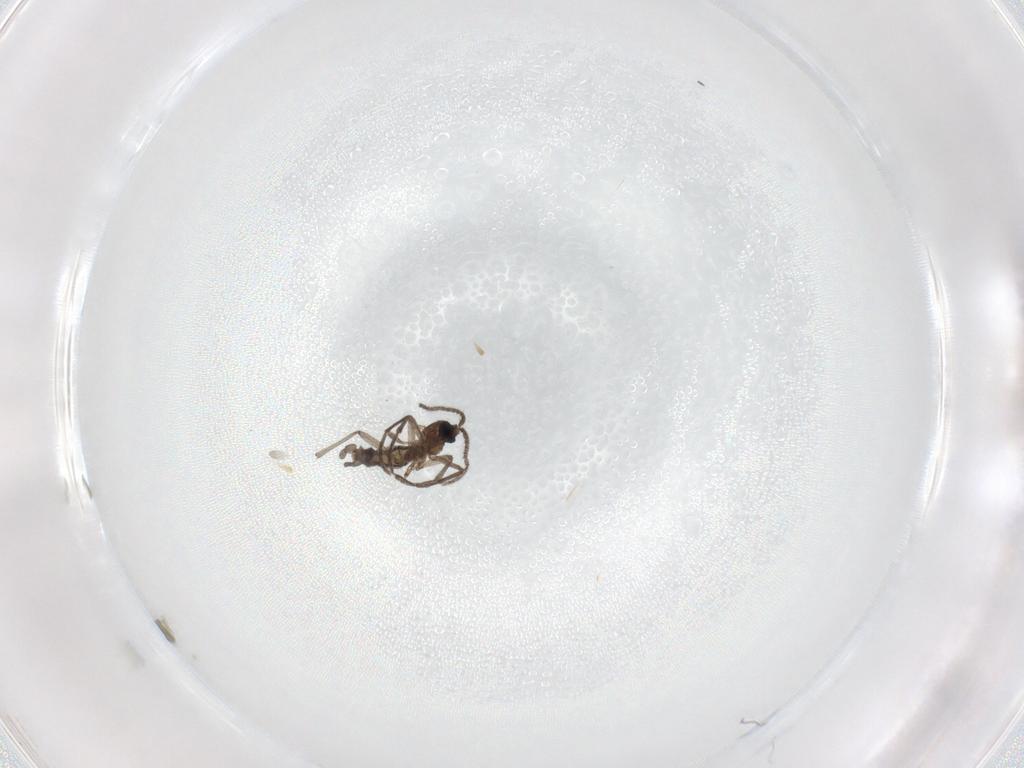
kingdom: Animalia
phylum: Arthropoda
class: Insecta
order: Diptera
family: Sciaridae
